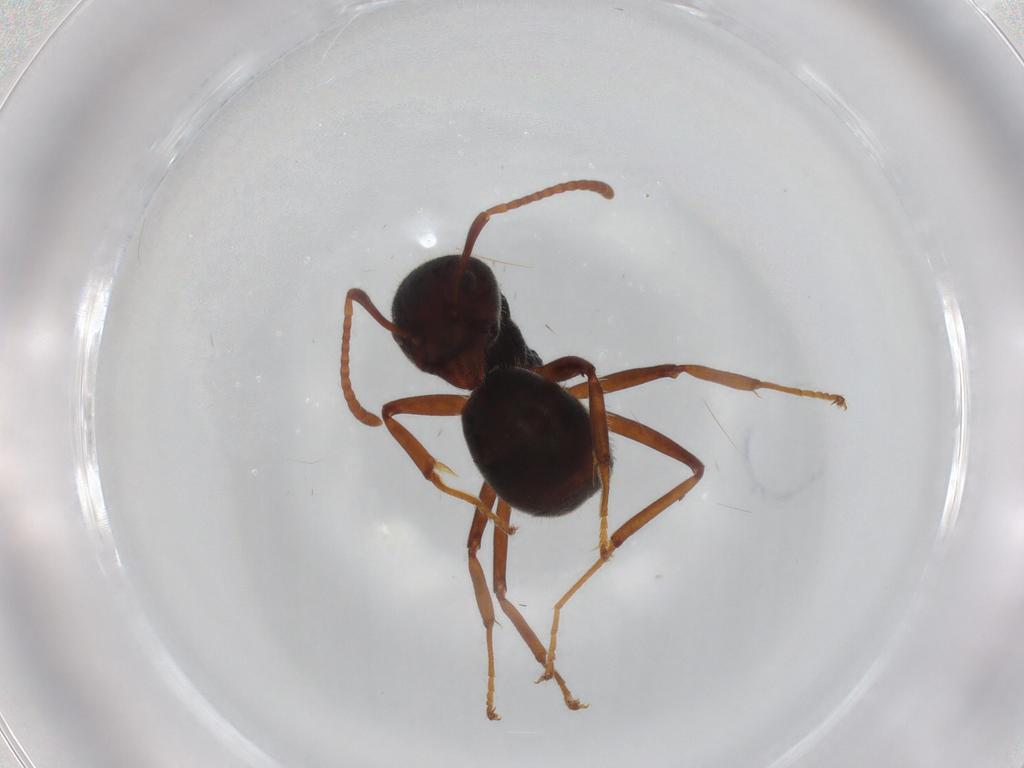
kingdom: Animalia
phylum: Arthropoda
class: Insecta
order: Hymenoptera
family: Formicidae
